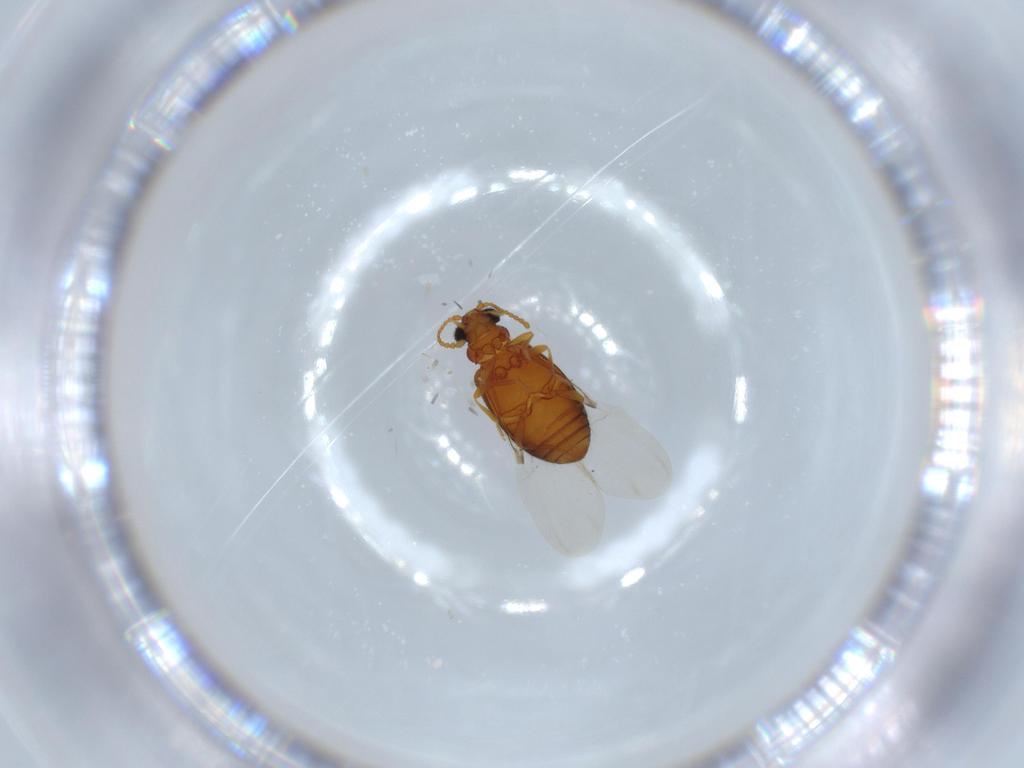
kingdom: Animalia
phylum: Arthropoda
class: Insecta
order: Coleoptera
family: Aderidae
